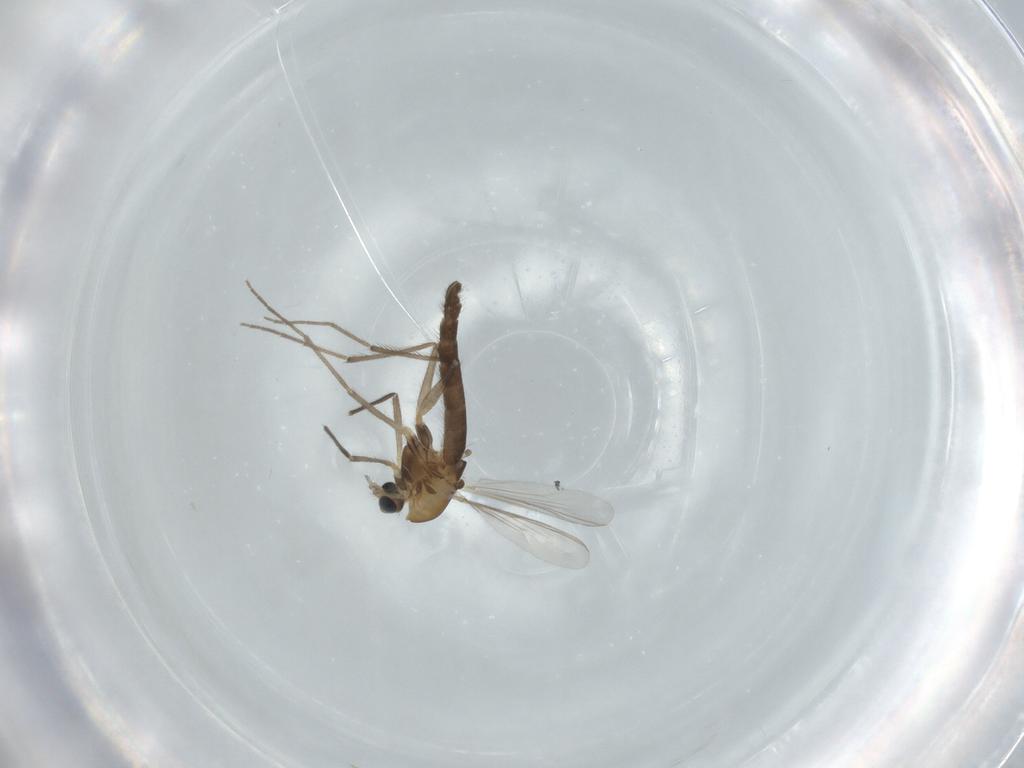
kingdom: Animalia
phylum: Arthropoda
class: Insecta
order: Diptera
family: Chironomidae
